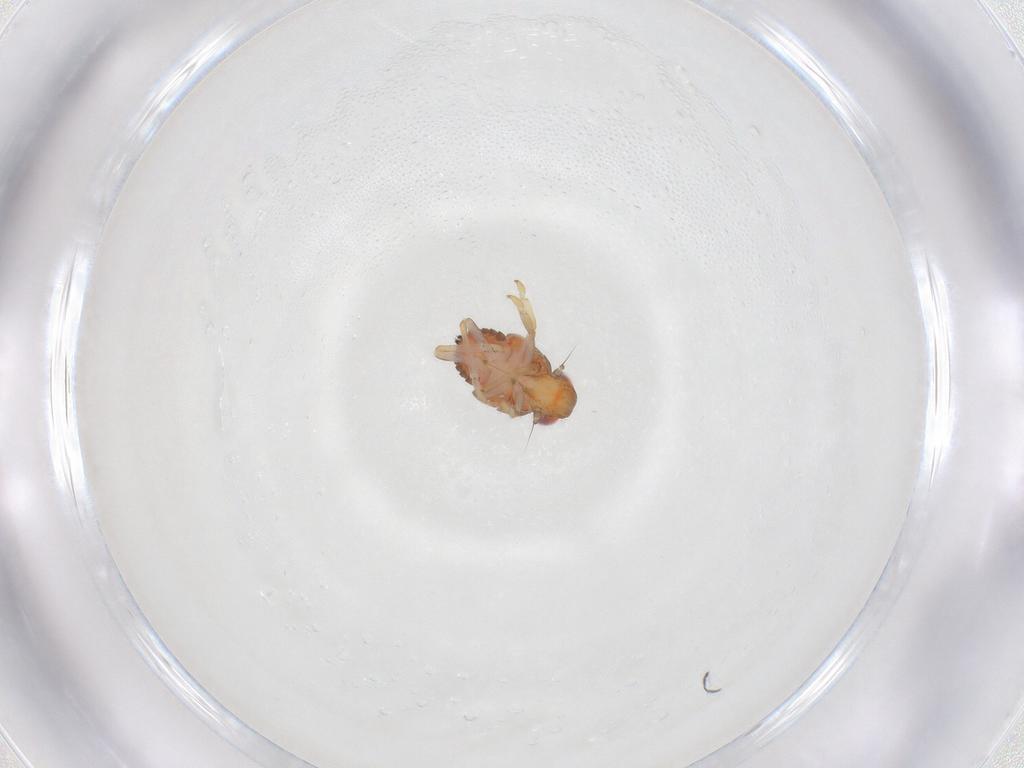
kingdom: Animalia
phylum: Arthropoda
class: Insecta
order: Hemiptera
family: Issidae
